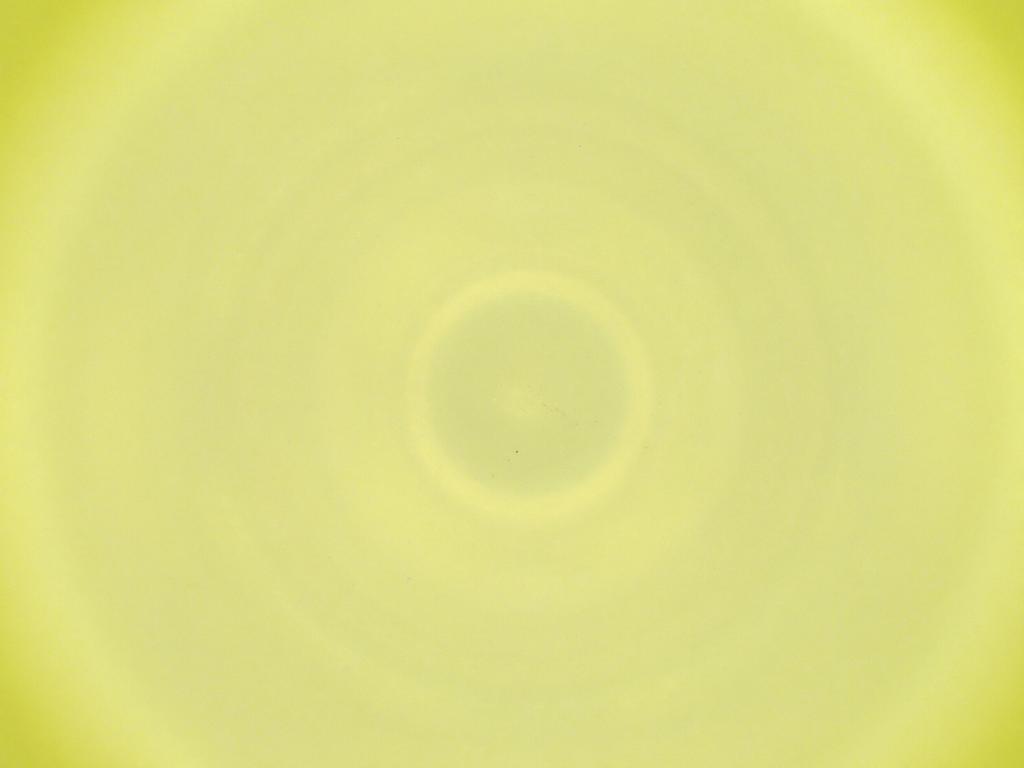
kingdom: Animalia
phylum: Arthropoda
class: Insecta
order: Diptera
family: Cecidomyiidae
